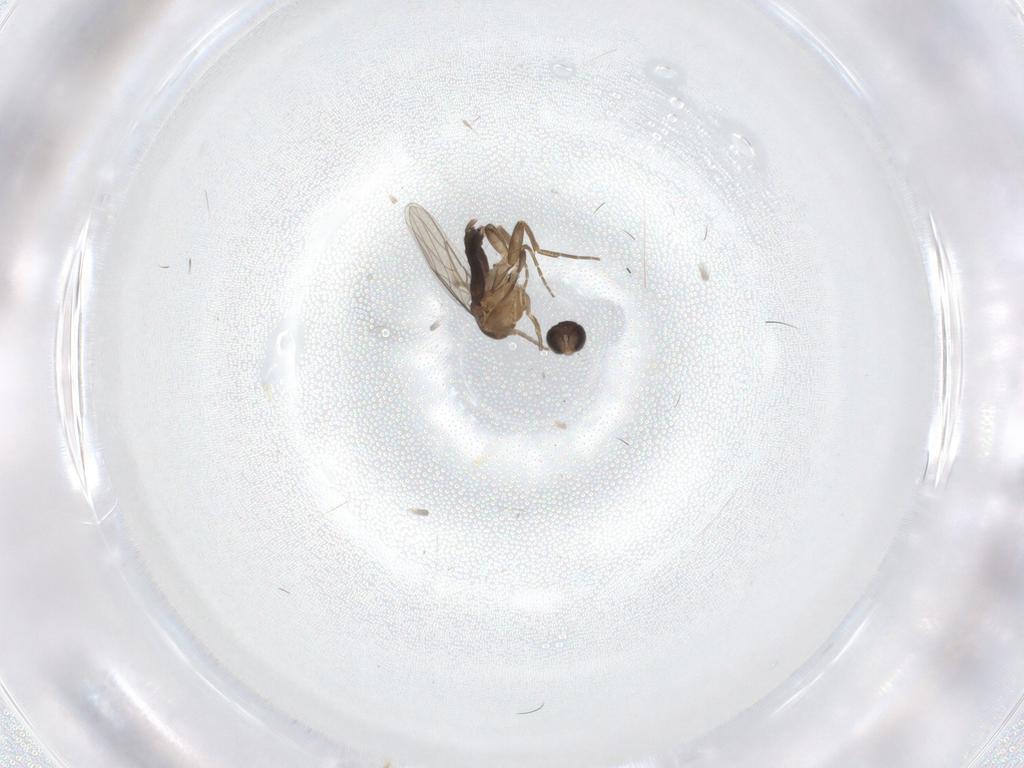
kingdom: Animalia
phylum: Arthropoda
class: Insecta
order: Diptera
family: Phoridae
